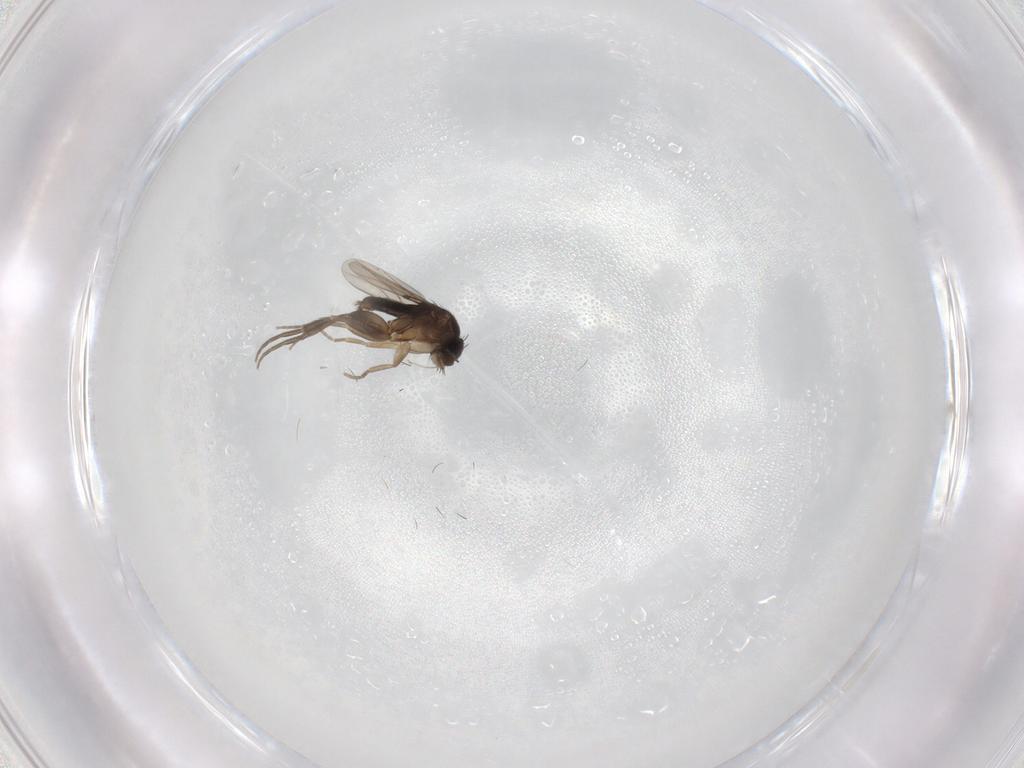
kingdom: Animalia
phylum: Arthropoda
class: Insecta
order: Diptera
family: Phoridae
